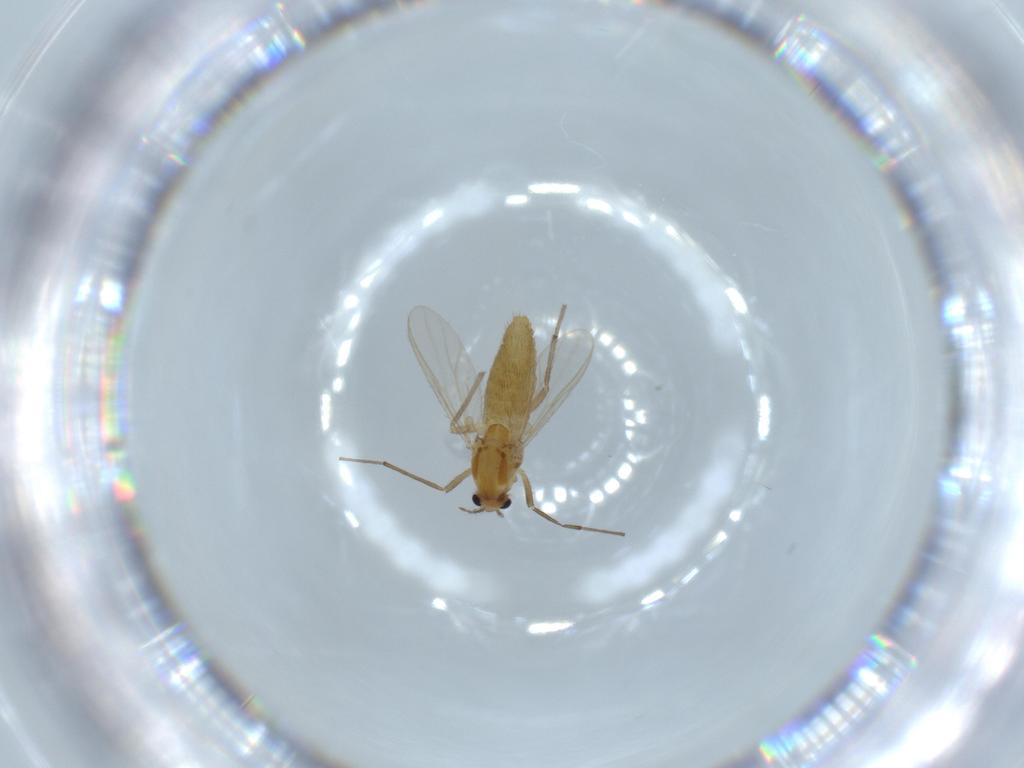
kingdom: Animalia
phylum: Arthropoda
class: Insecta
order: Diptera
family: Chironomidae
